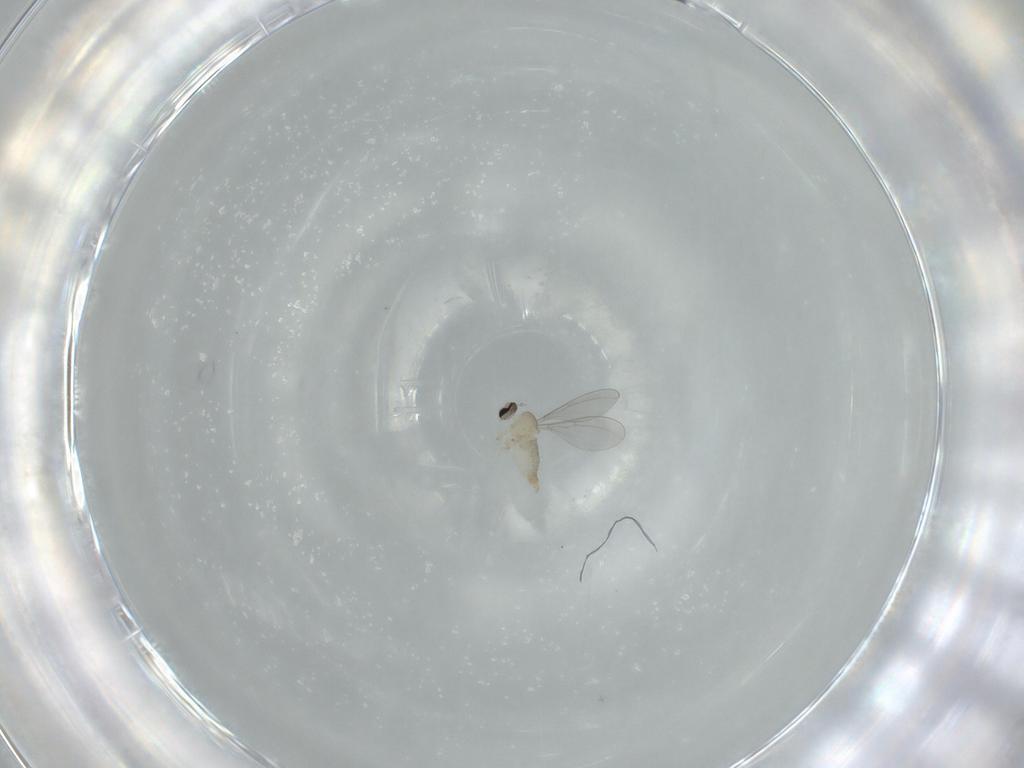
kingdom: Animalia
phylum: Arthropoda
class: Insecta
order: Diptera
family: Cecidomyiidae
